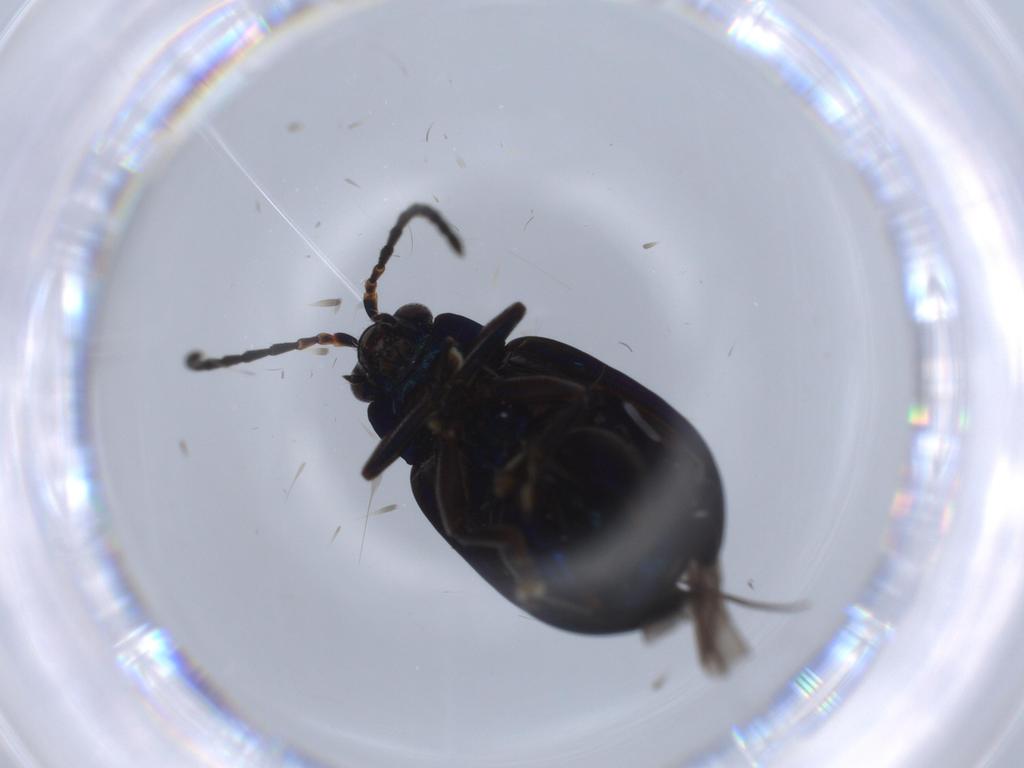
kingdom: Animalia
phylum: Arthropoda
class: Insecta
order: Coleoptera
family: Chrysomelidae
